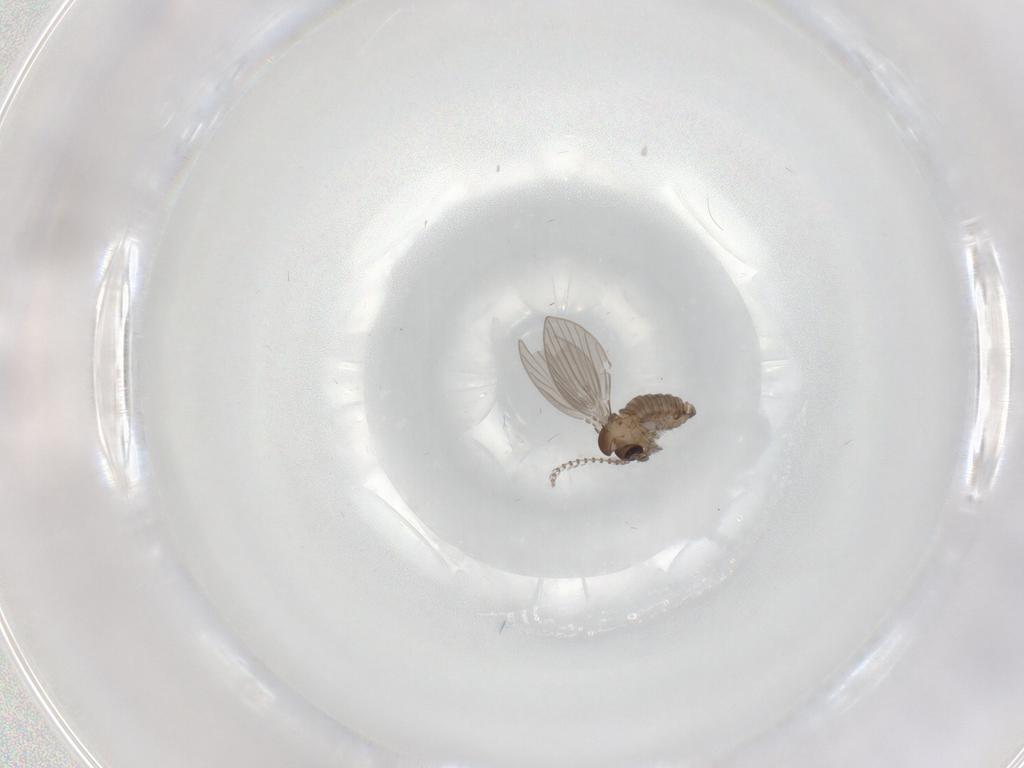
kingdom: Animalia
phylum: Arthropoda
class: Insecta
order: Diptera
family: Psychodidae
